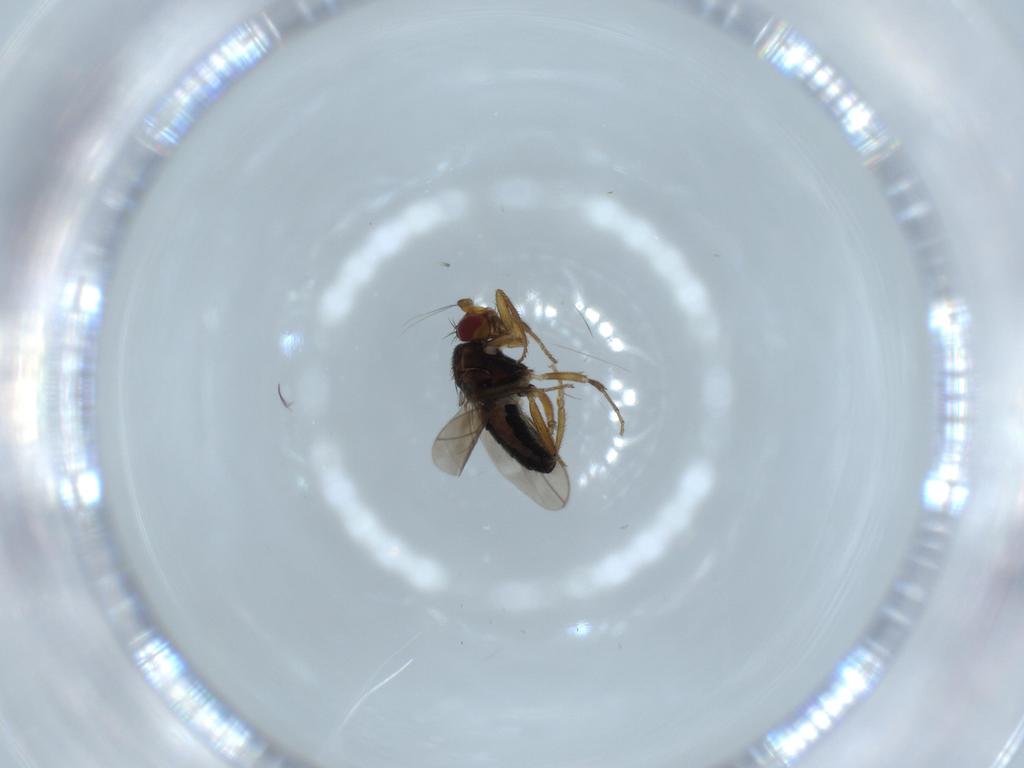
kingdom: Animalia
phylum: Arthropoda
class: Insecta
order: Diptera
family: Sphaeroceridae
